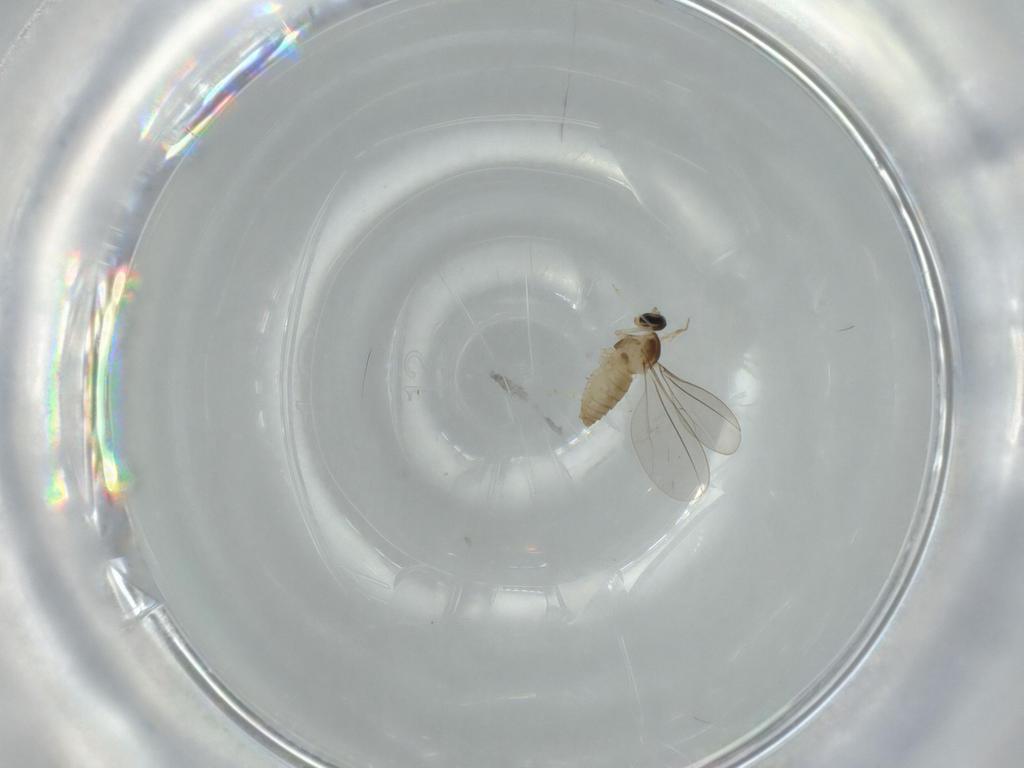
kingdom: Animalia
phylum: Arthropoda
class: Insecta
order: Diptera
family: Cecidomyiidae
